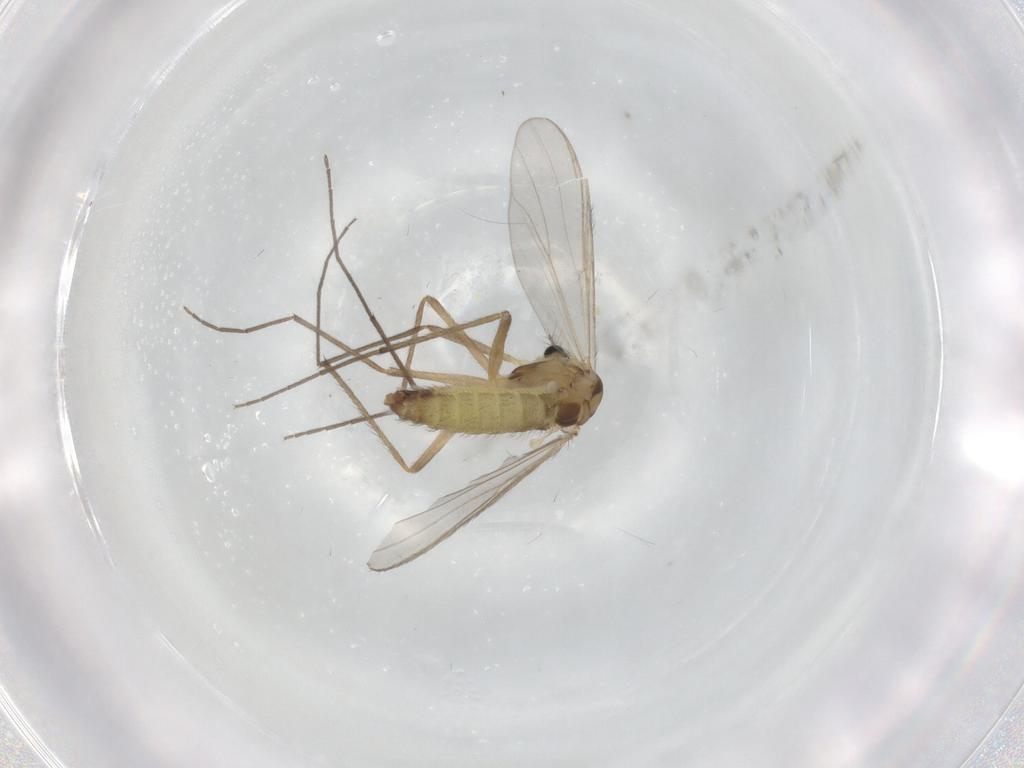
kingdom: Animalia
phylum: Arthropoda
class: Insecta
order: Diptera
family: Chironomidae
